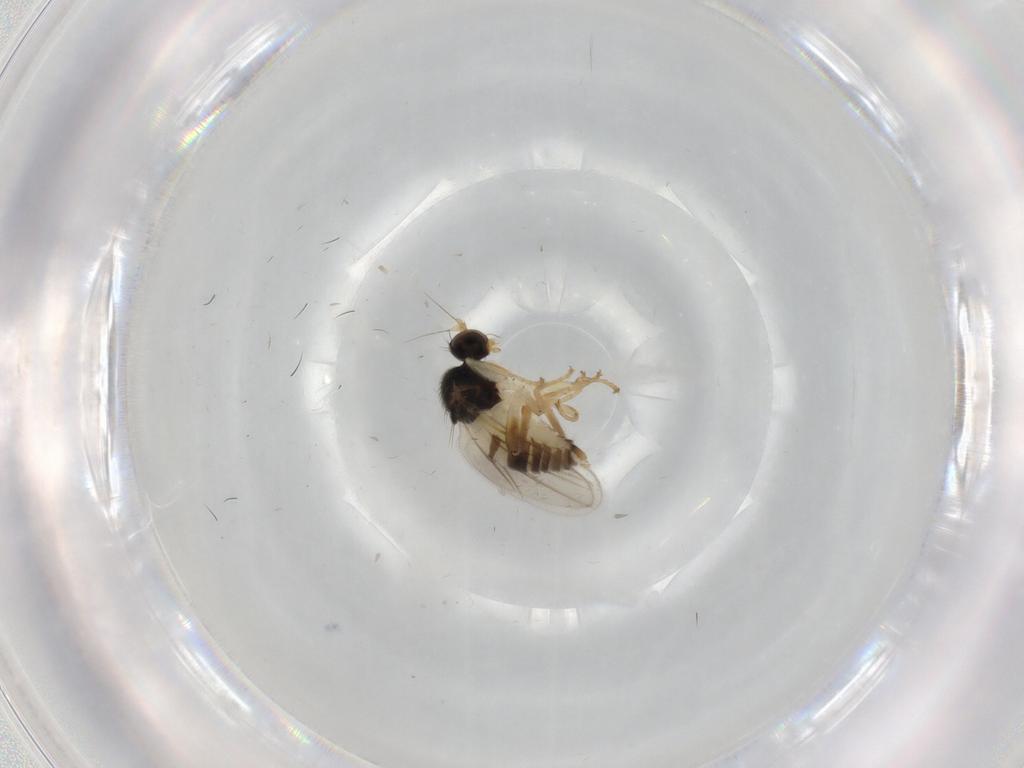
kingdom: Animalia
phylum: Arthropoda
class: Insecta
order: Diptera
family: Hybotidae
